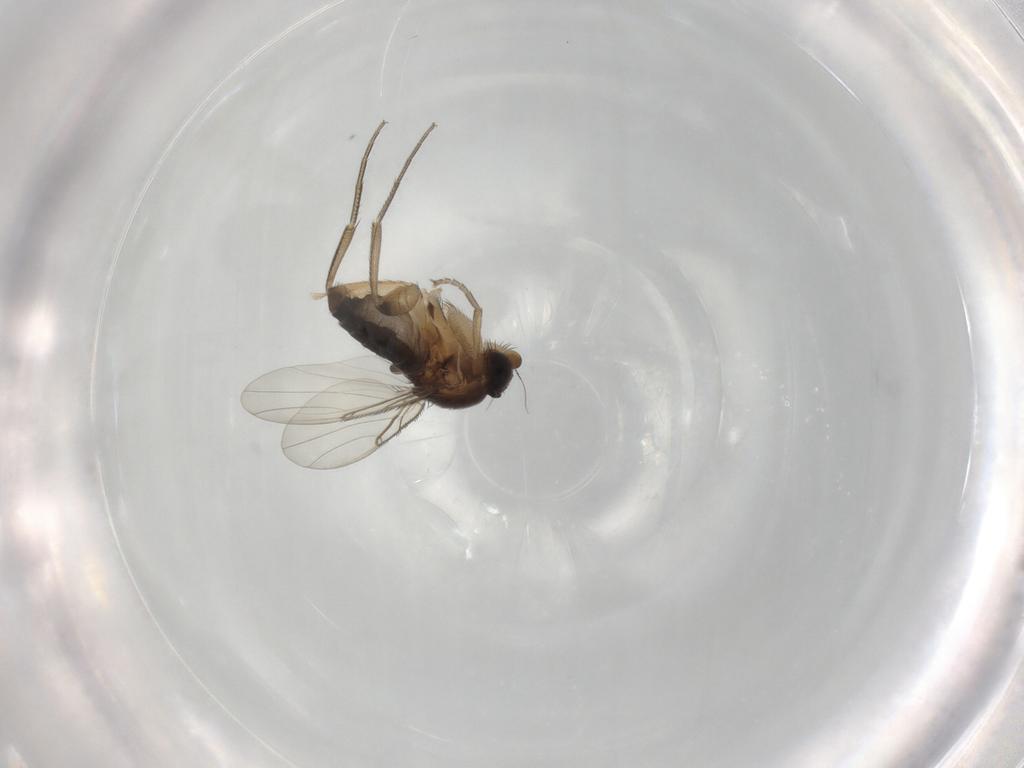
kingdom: Animalia
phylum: Arthropoda
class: Insecta
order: Diptera
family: Phoridae
